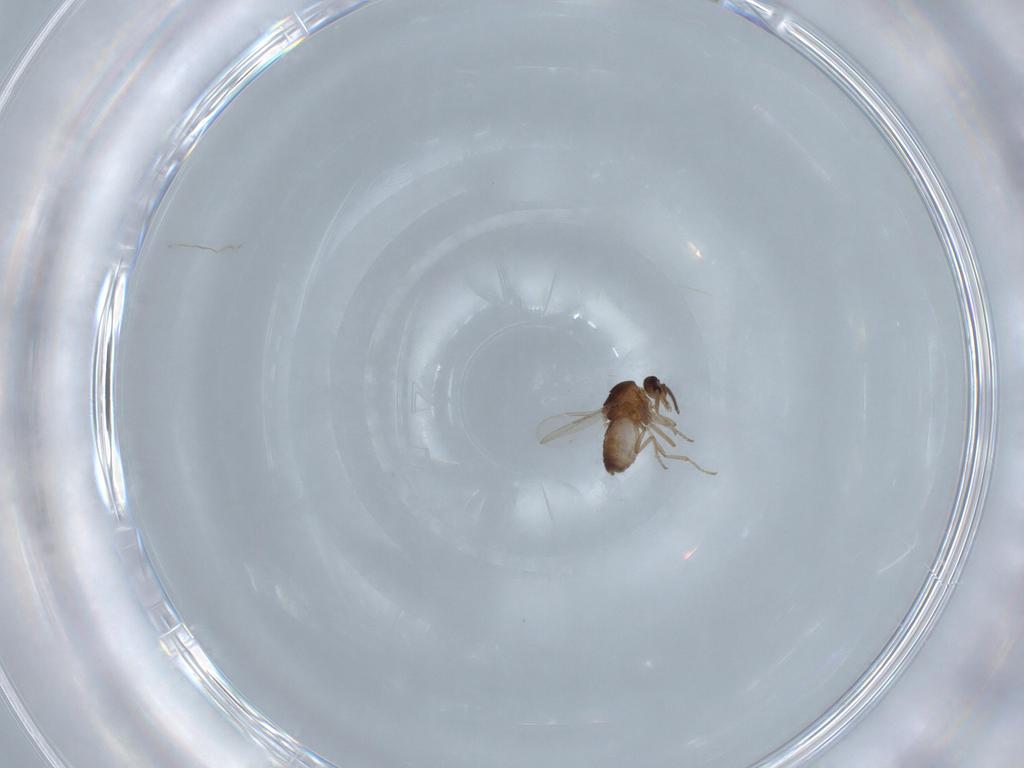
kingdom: Animalia
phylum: Arthropoda
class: Insecta
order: Diptera
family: Ceratopogonidae
